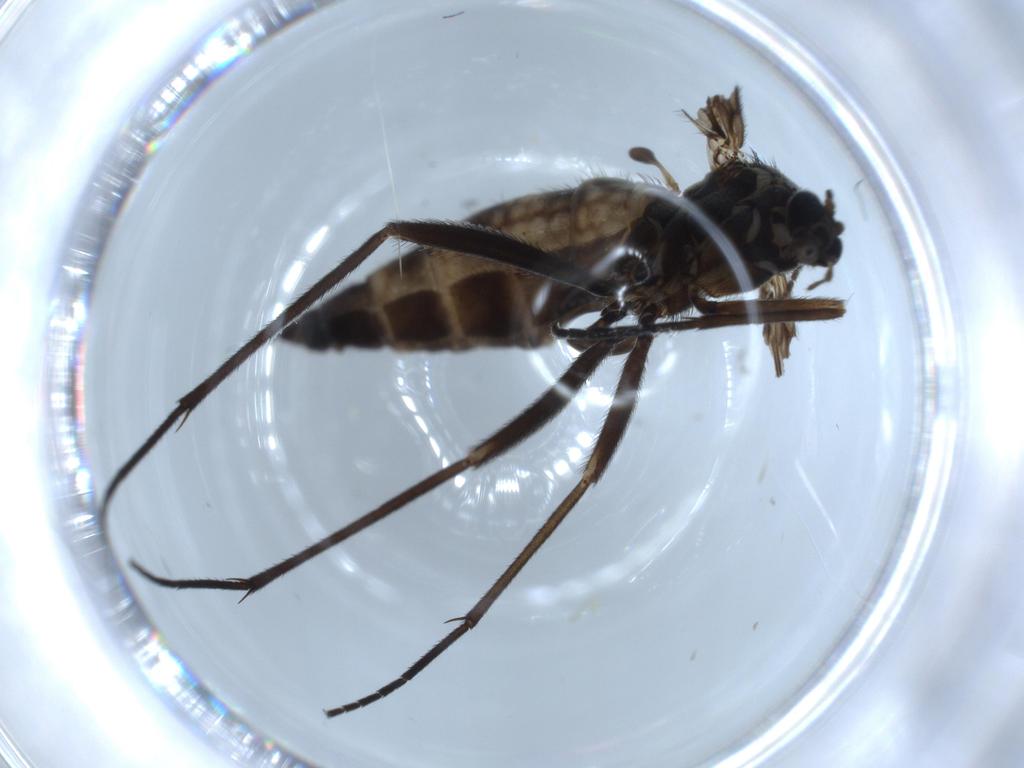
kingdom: Animalia
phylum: Arthropoda
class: Insecta
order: Diptera
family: Sciaridae
